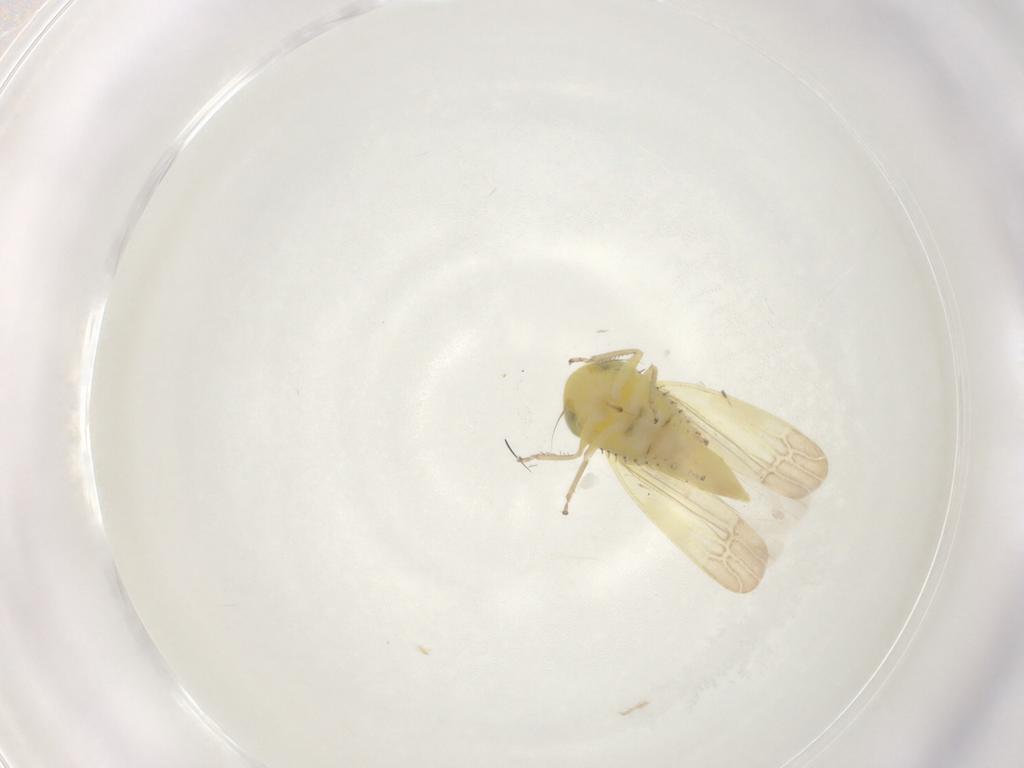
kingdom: Animalia
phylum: Arthropoda
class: Insecta
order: Hemiptera
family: Cicadellidae
